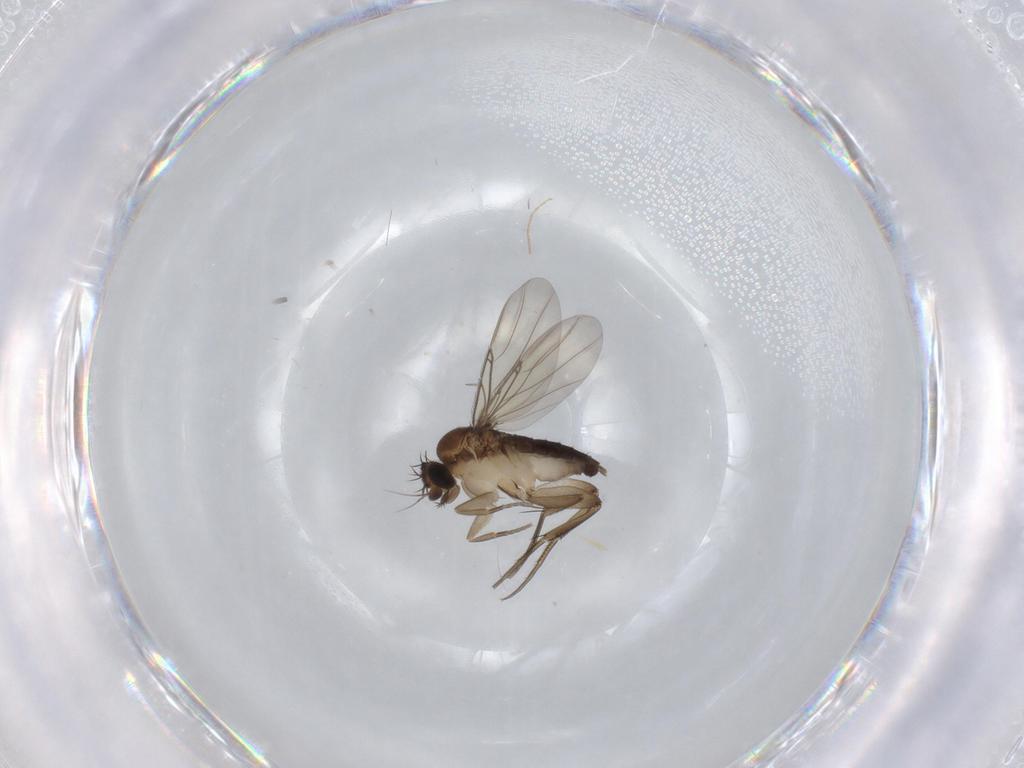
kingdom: Animalia
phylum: Arthropoda
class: Insecta
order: Diptera
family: Phoridae
